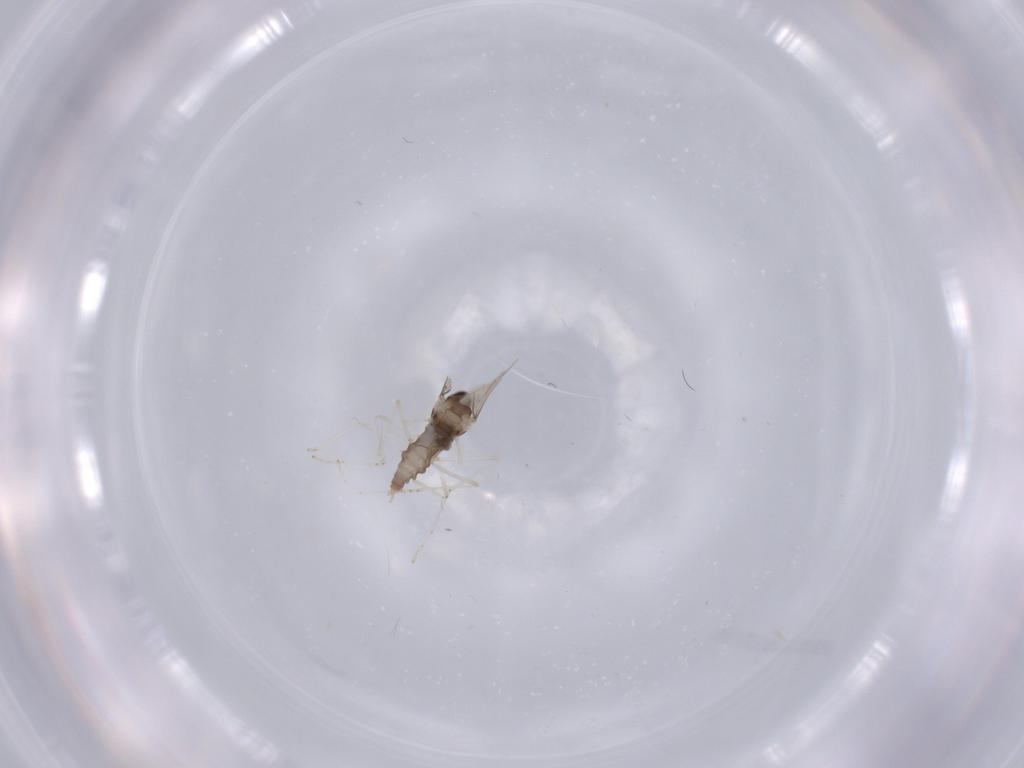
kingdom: Animalia
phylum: Arthropoda
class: Insecta
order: Diptera
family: Cecidomyiidae
